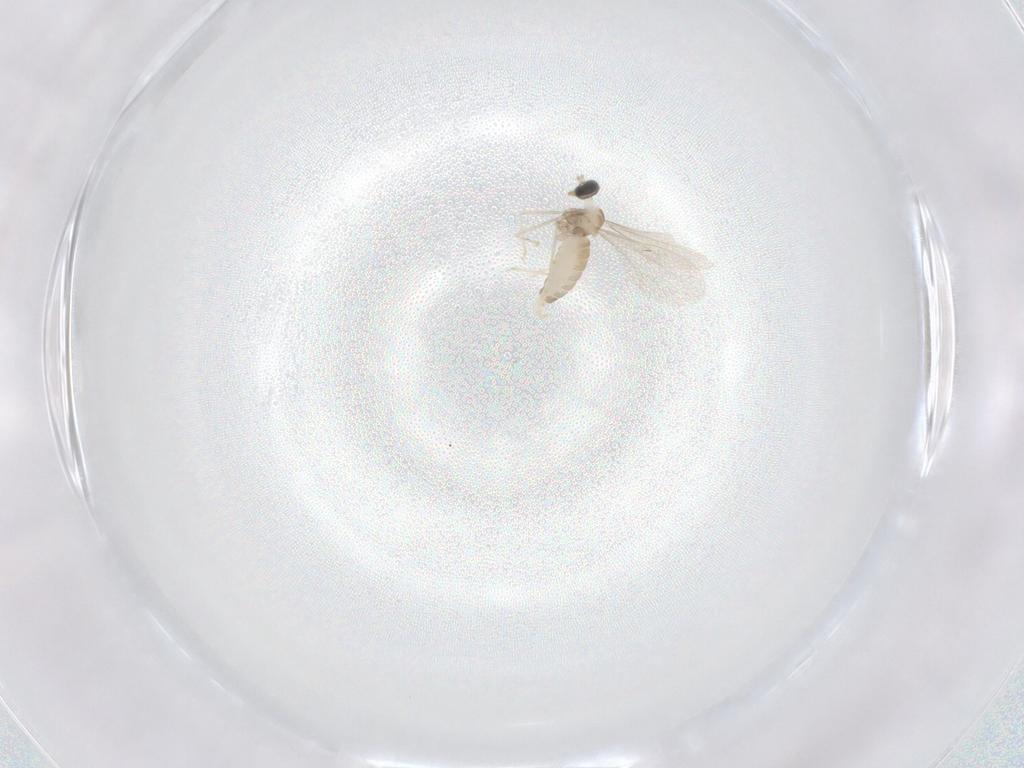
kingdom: Animalia
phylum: Arthropoda
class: Insecta
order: Diptera
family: Cecidomyiidae
